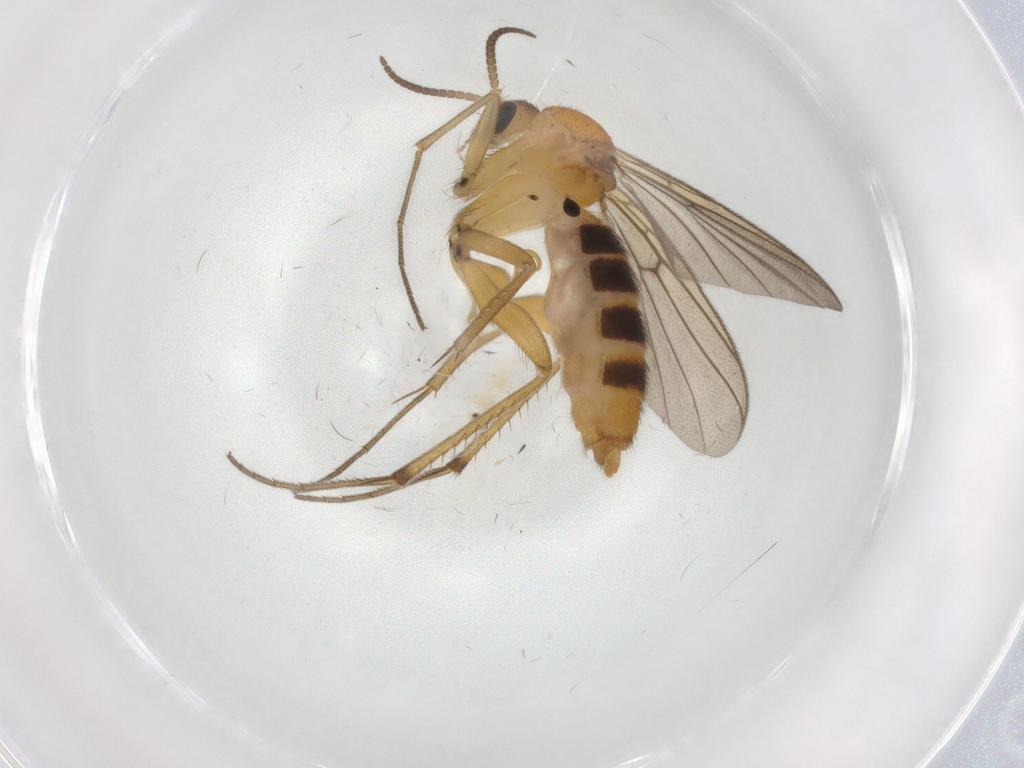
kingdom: Animalia
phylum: Arthropoda
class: Insecta
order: Diptera
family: Mycetophilidae
